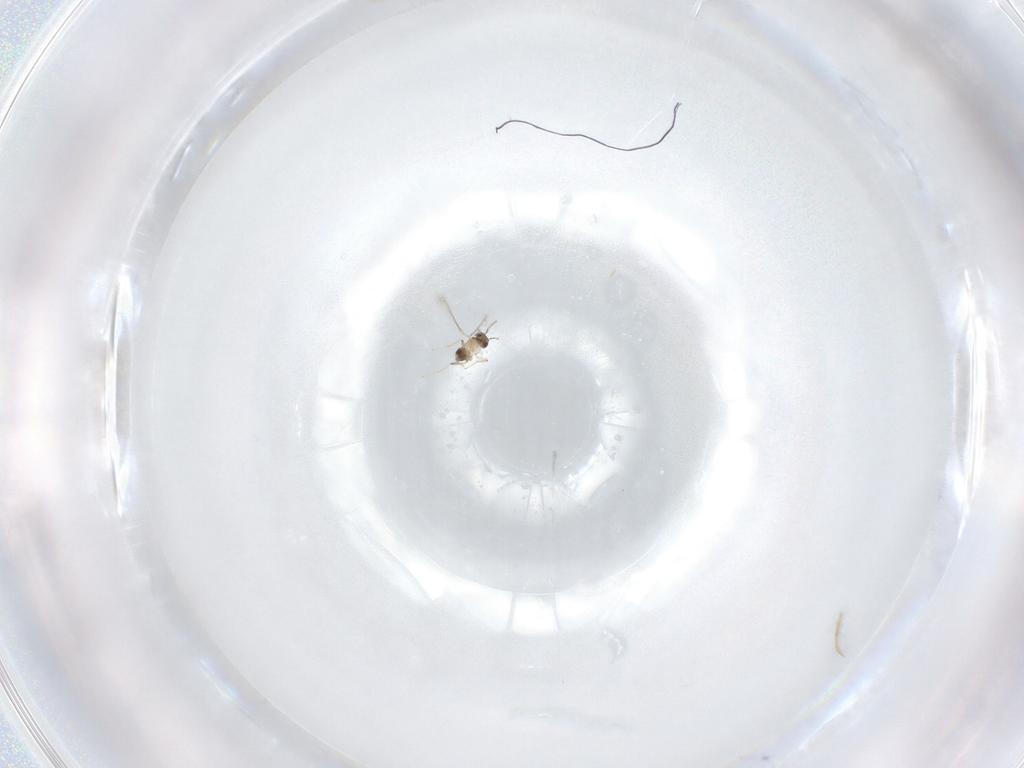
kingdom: Animalia
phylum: Arthropoda
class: Insecta
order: Hymenoptera
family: Mymaridae
